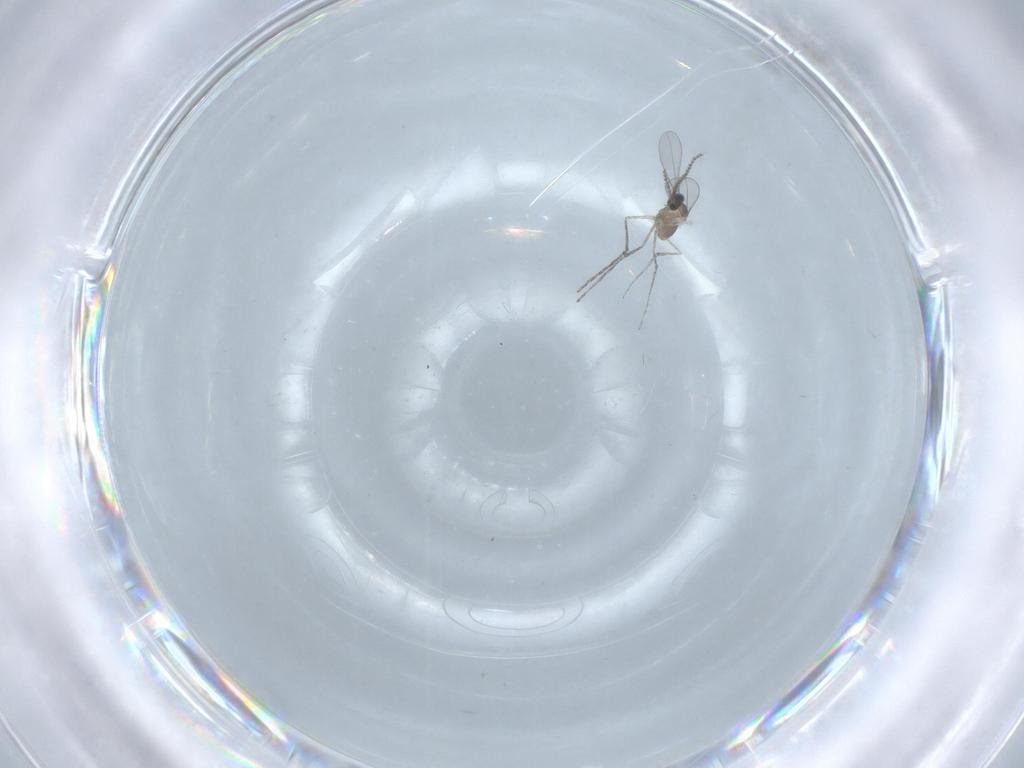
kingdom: Animalia
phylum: Arthropoda
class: Insecta
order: Diptera
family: Cecidomyiidae
